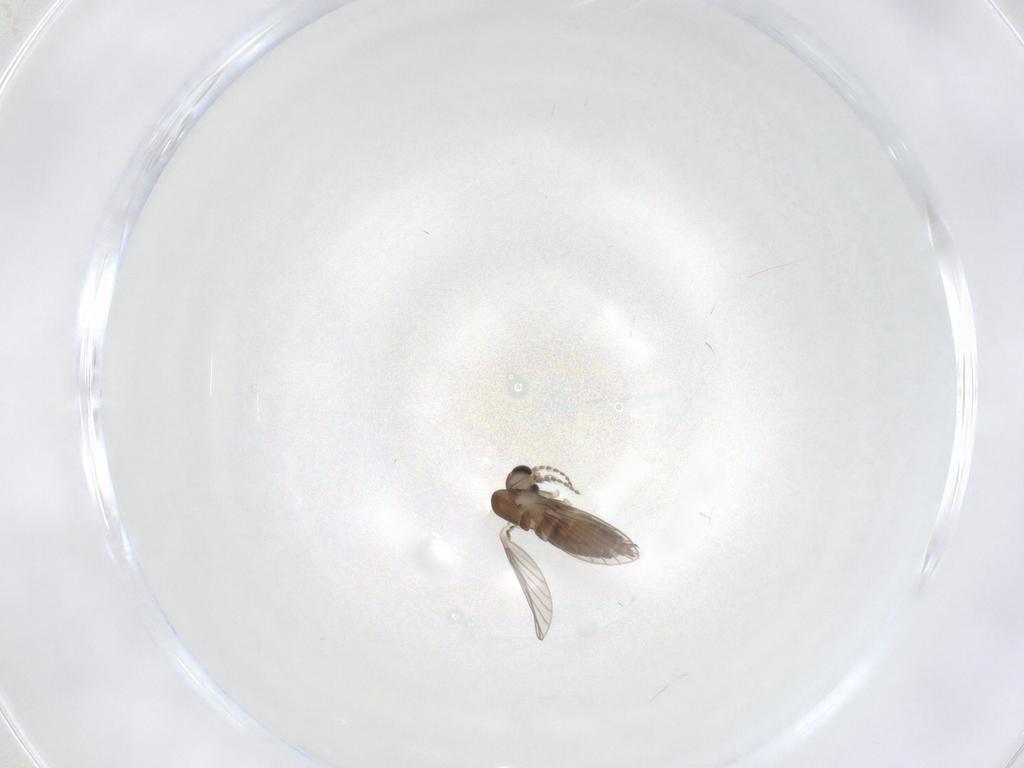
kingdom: Animalia
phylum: Arthropoda
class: Insecta
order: Diptera
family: Psychodidae
